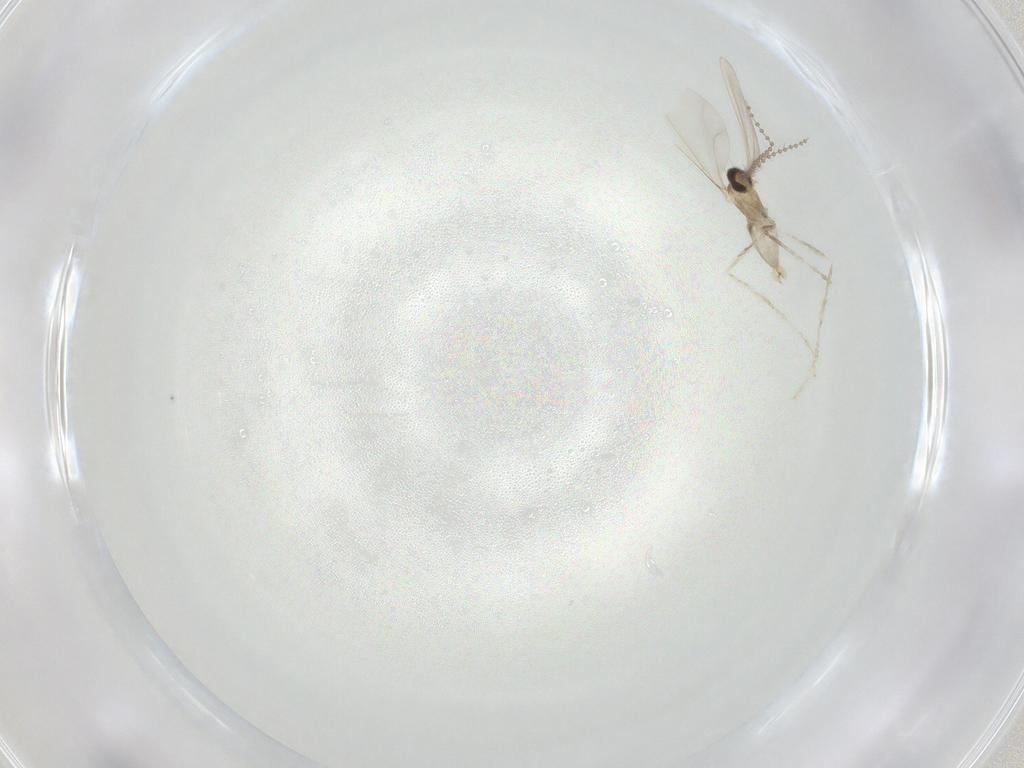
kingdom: Animalia
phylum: Arthropoda
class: Insecta
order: Diptera
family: Cecidomyiidae
